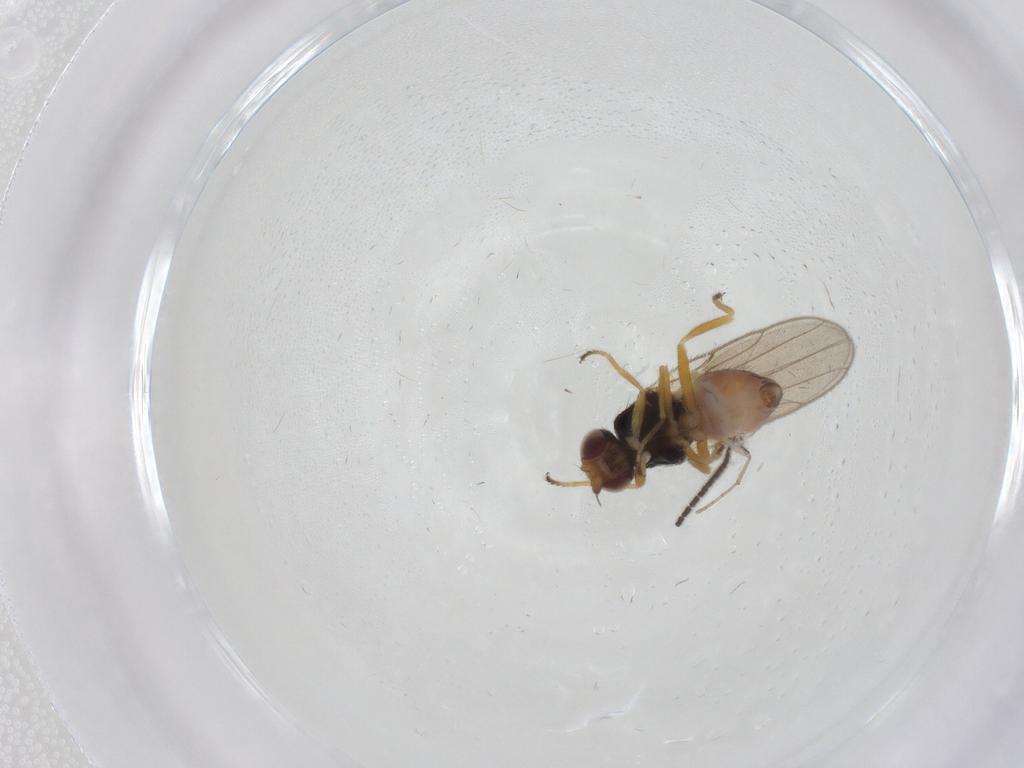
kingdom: Animalia
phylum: Arthropoda
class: Insecta
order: Diptera
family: Chloropidae
